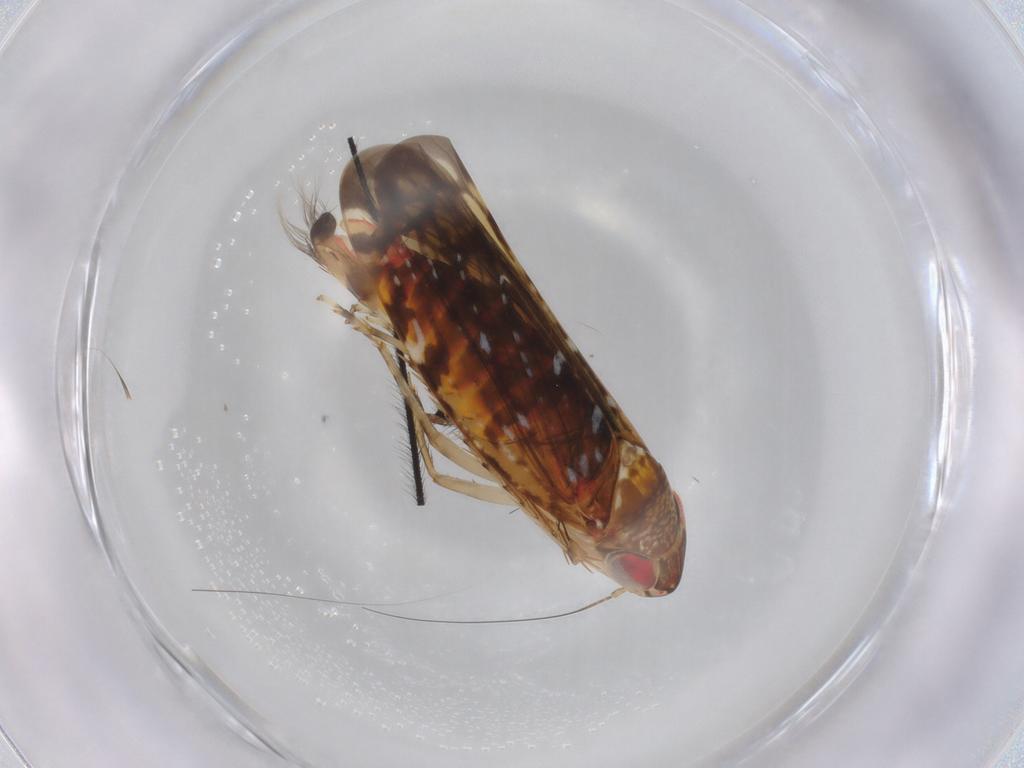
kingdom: Animalia
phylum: Arthropoda
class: Insecta
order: Hemiptera
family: Cicadellidae
